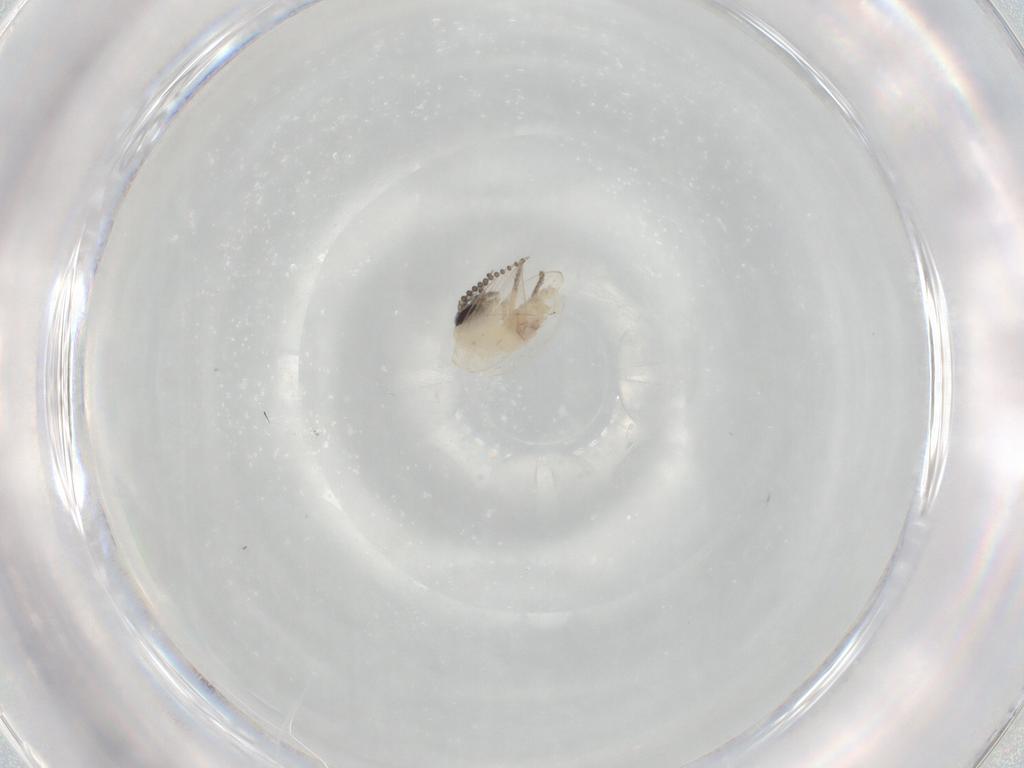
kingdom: Animalia
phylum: Arthropoda
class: Insecta
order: Diptera
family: Psychodidae
